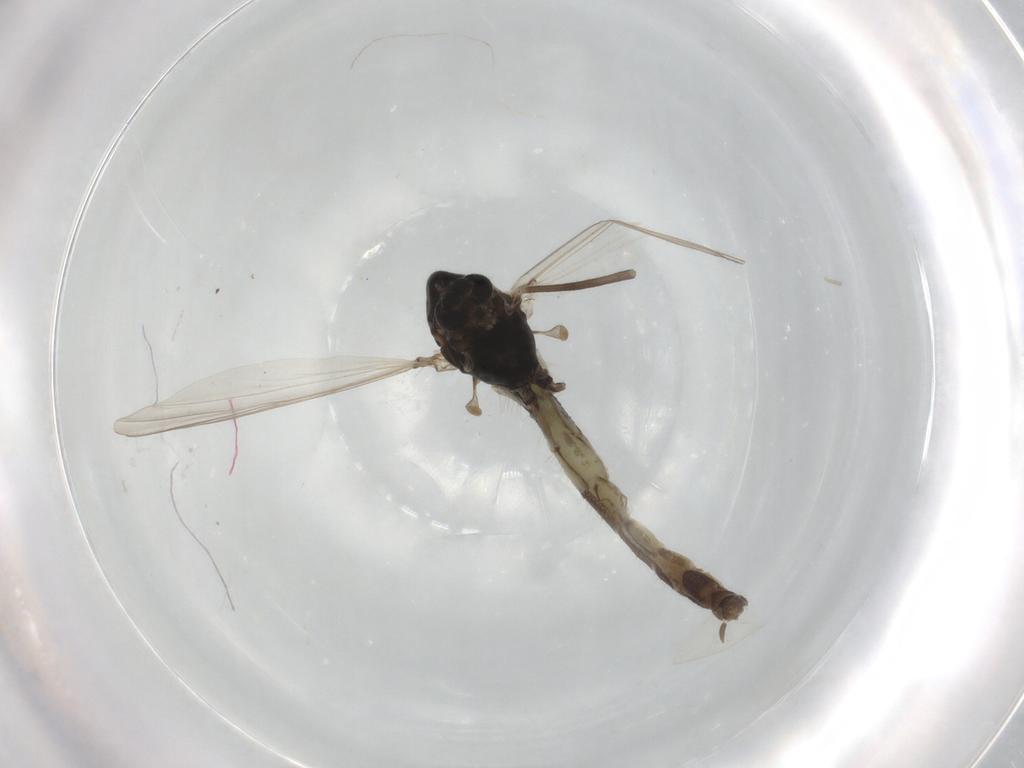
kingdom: Animalia
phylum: Arthropoda
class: Insecta
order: Diptera
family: Chironomidae
